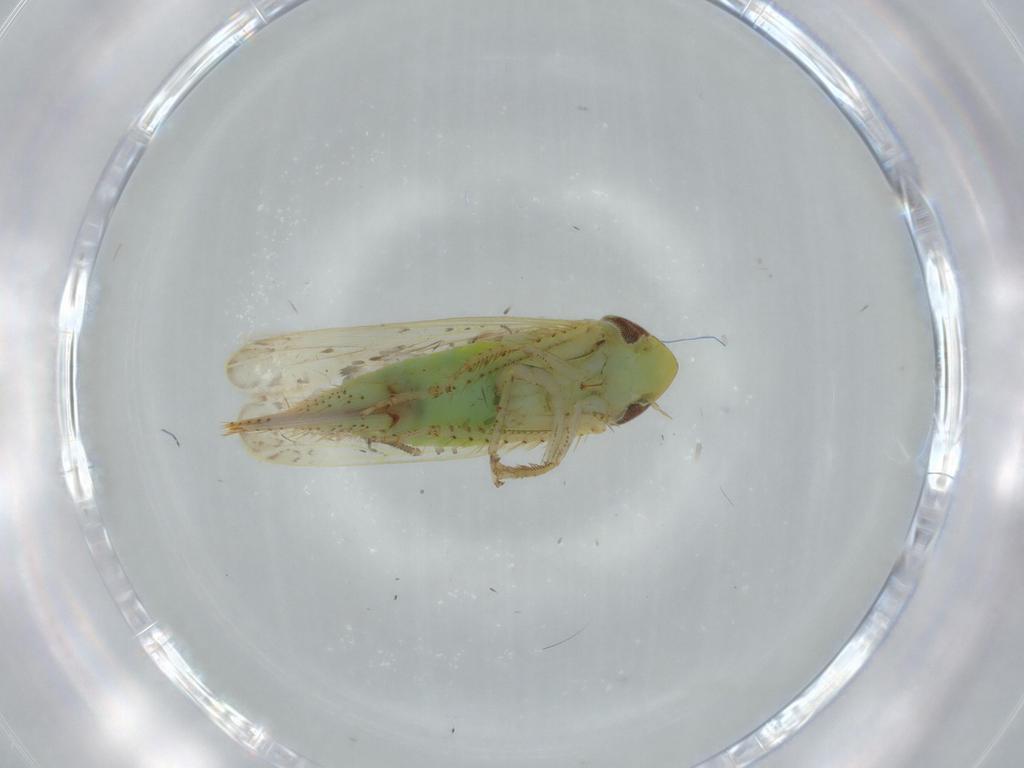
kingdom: Animalia
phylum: Arthropoda
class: Insecta
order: Hemiptera
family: Cicadellidae
